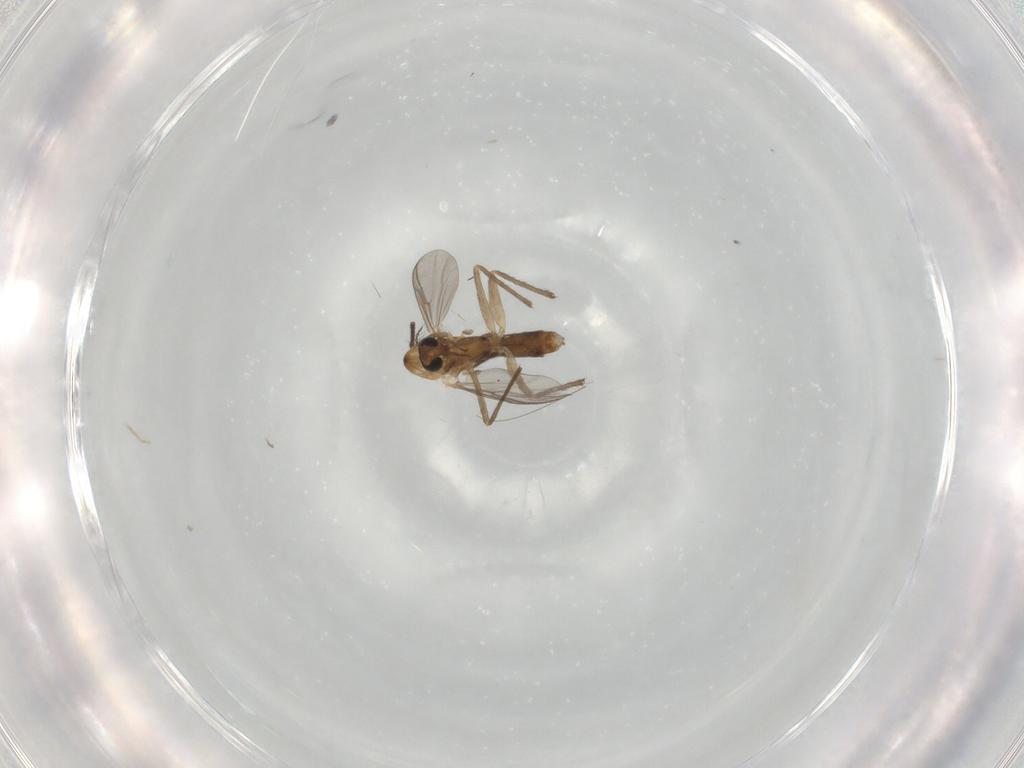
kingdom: Animalia
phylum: Arthropoda
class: Insecta
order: Diptera
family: Chironomidae
